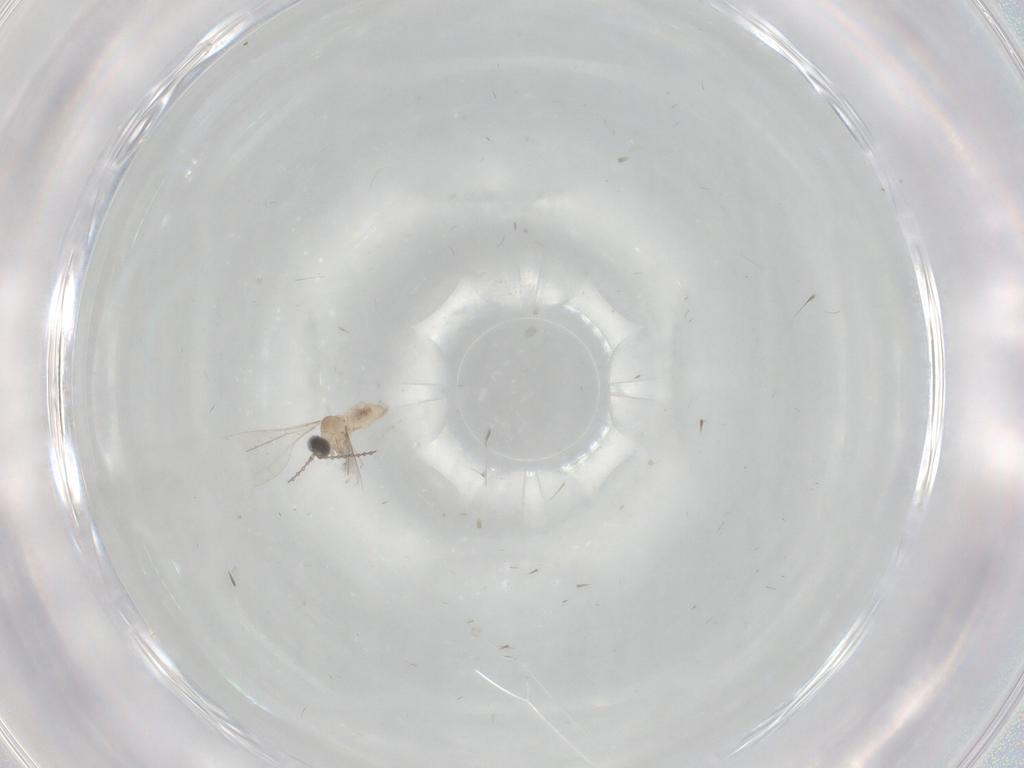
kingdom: Animalia
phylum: Arthropoda
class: Insecta
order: Diptera
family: Cecidomyiidae
